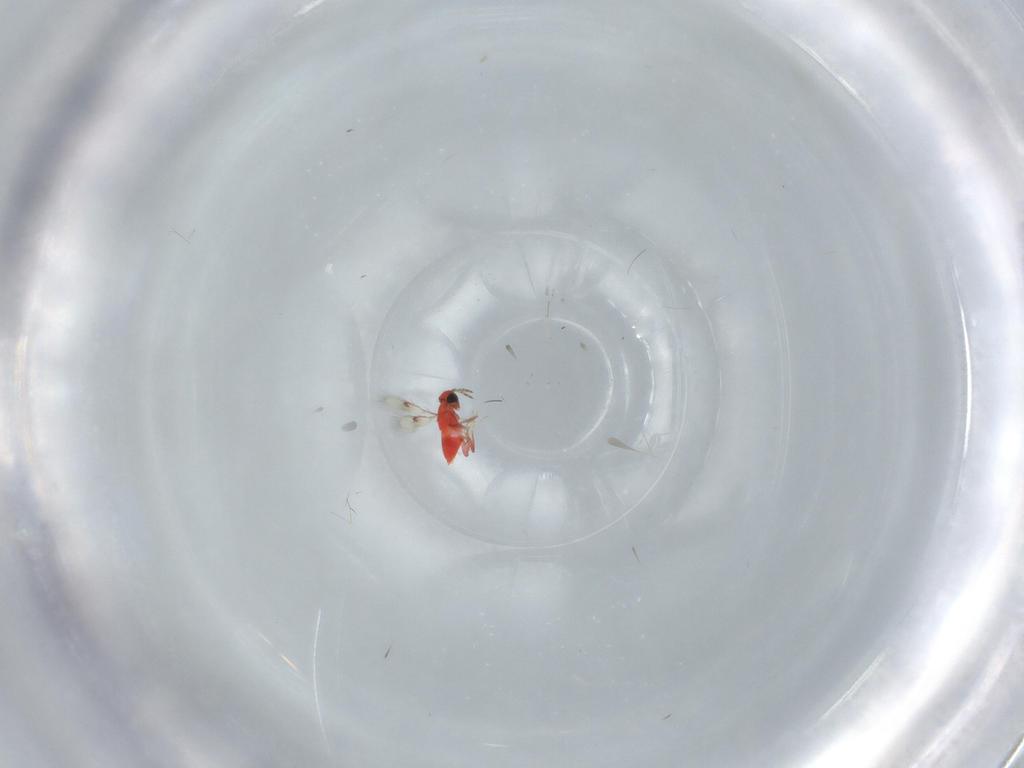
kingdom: Animalia
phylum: Arthropoda
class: Insecta
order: Hymenoptera
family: Trichogrammatidae
